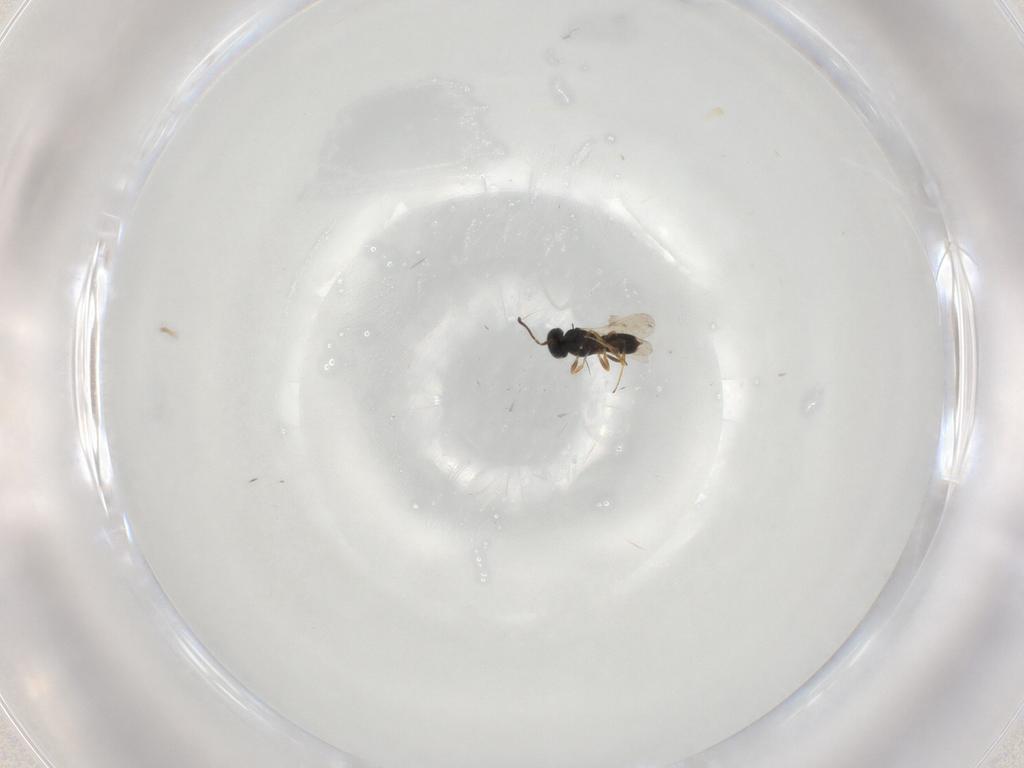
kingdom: Animalia
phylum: Arthropoda
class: Insecta
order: Hymenoptera
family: Scelionidae
